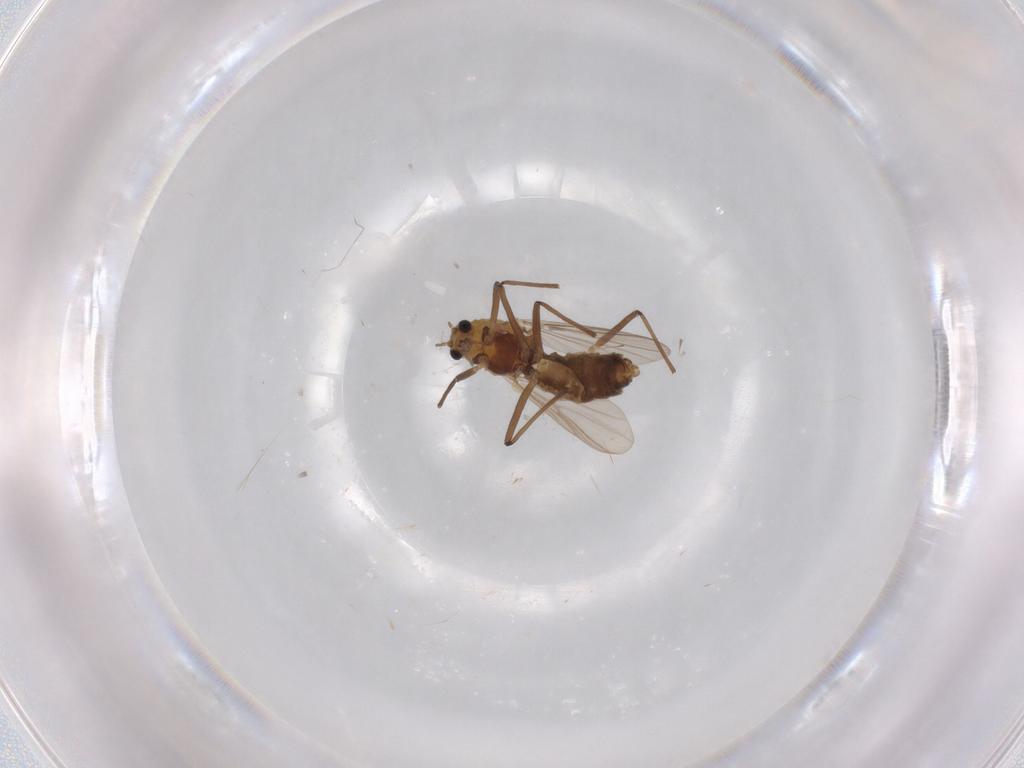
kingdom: Animalia
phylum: Arthropoda
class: Insecta
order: Diptera
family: Chironomidae
